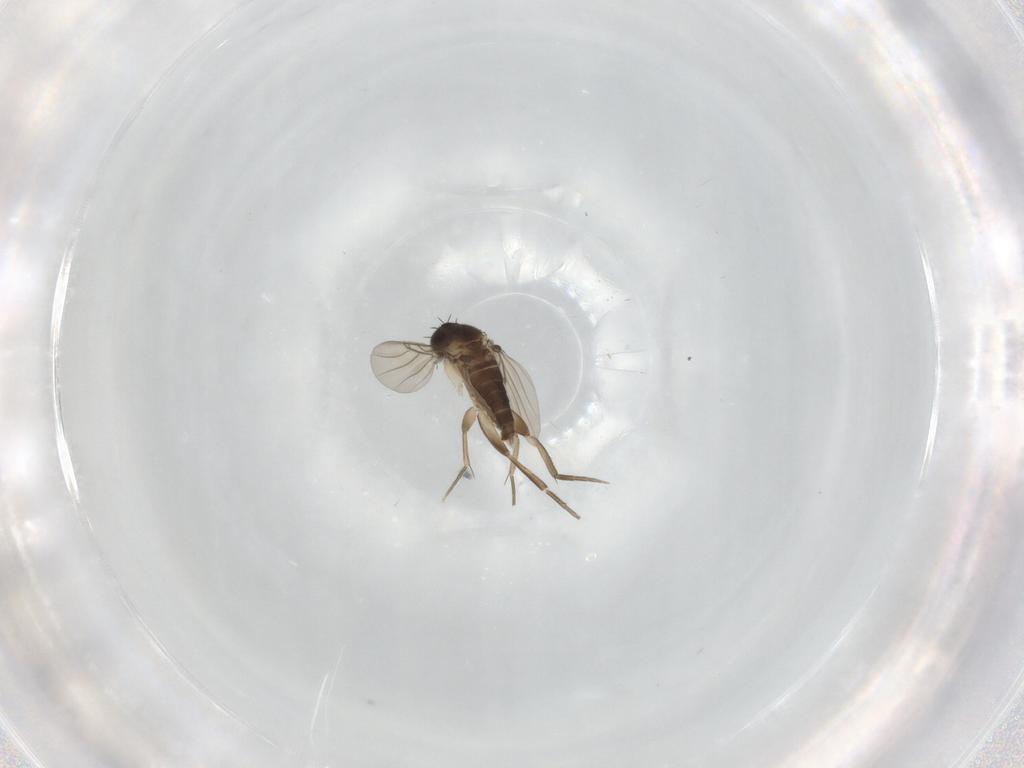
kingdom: Animalia
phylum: Arthropoda
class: Insecta
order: Diptera
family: Phoridae
